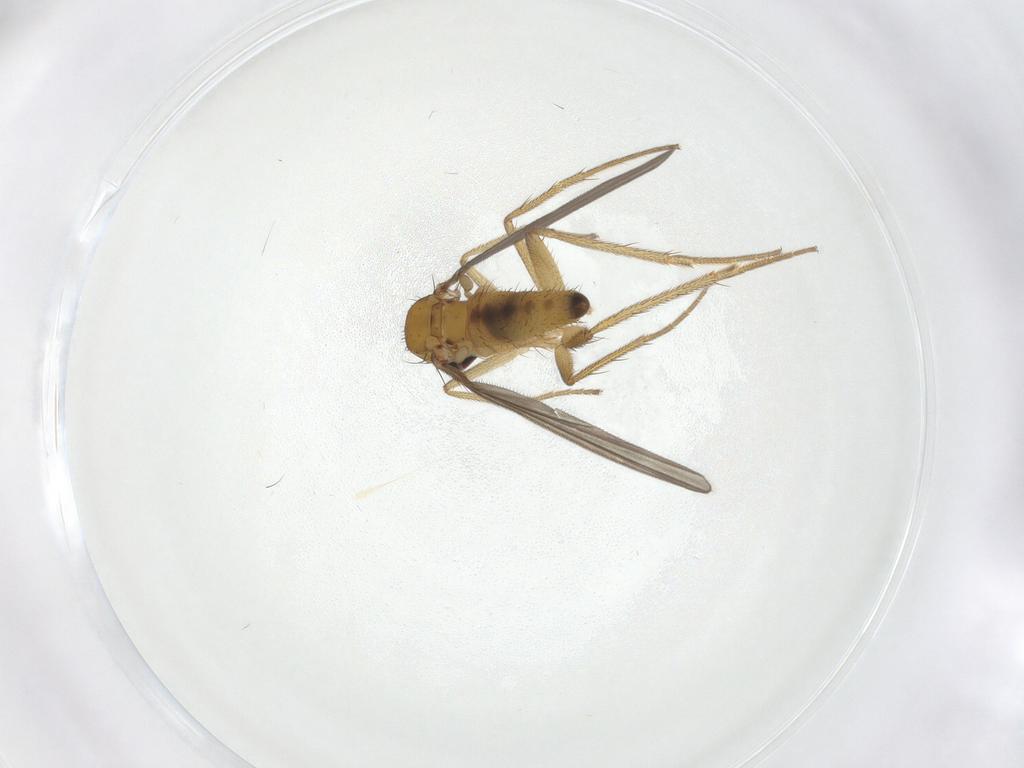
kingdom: Animalia
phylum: Arthropoda
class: Insecta
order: Diptera
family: Dolichopodidae
